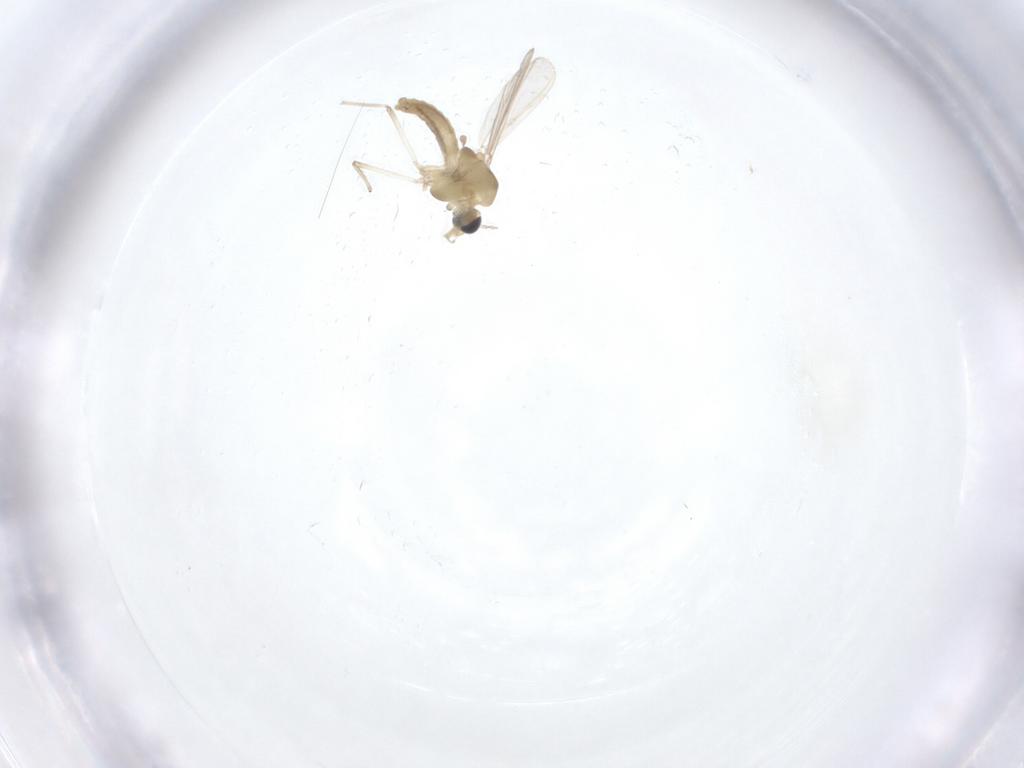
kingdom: Animalia
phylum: Arthropoda
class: Insecta
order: Diptera
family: Chironomidae
